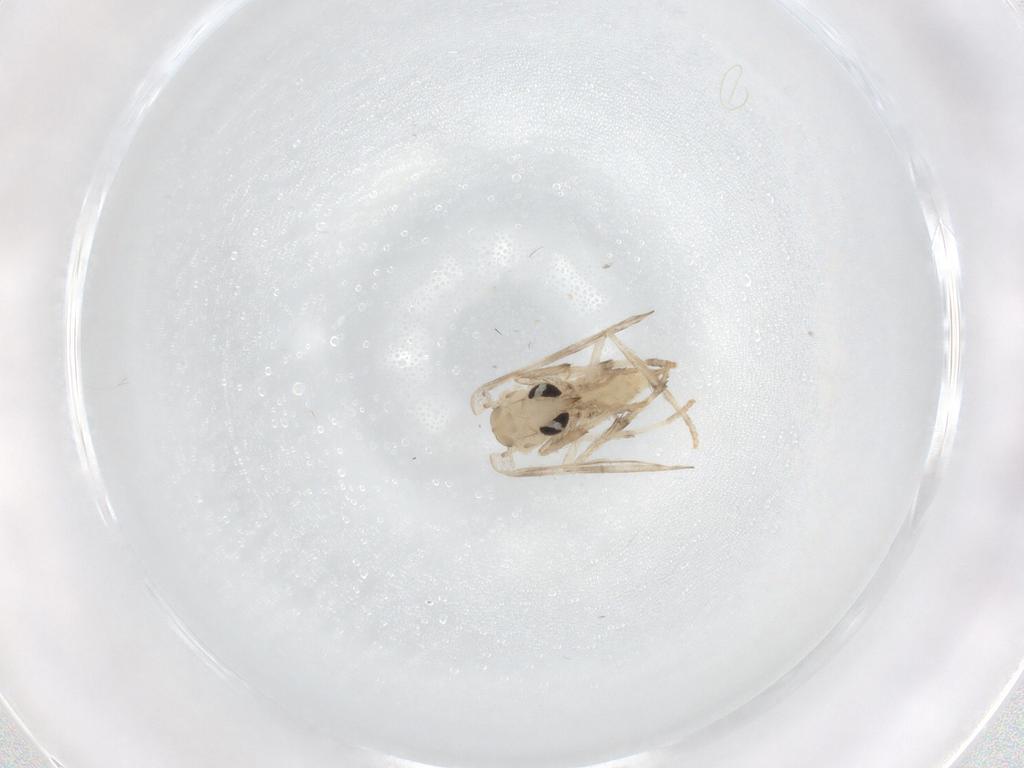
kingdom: Animalia
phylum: Arthropoda
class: Insecta
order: Diptera
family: Psychodidae
